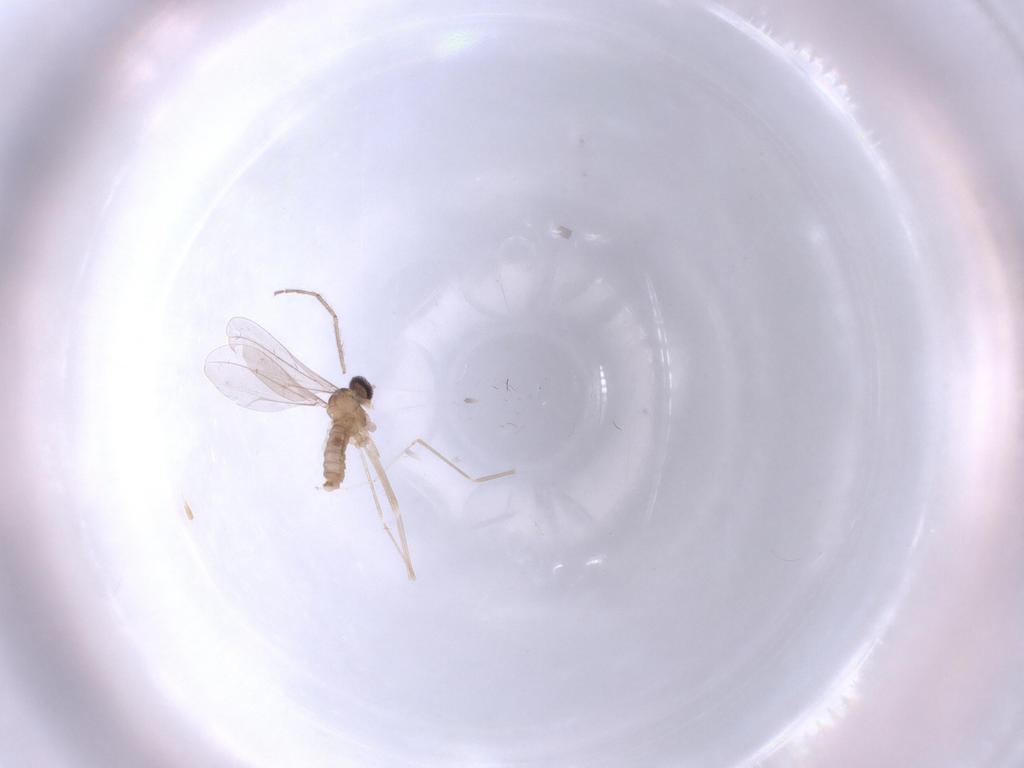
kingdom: Animalia
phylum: Arthropoda
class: Insecta
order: Diptera
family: Cecidomyiidae
